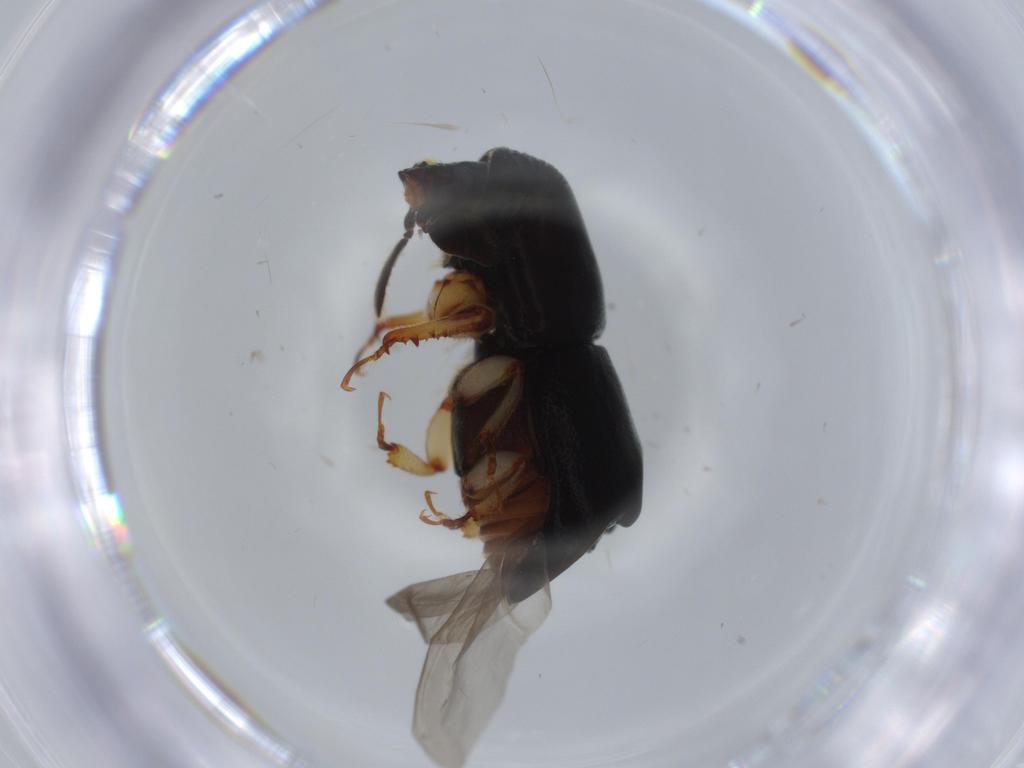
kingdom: Animalia
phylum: Arthropoda
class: Insecta
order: Coleoptera
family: Curculionidae
